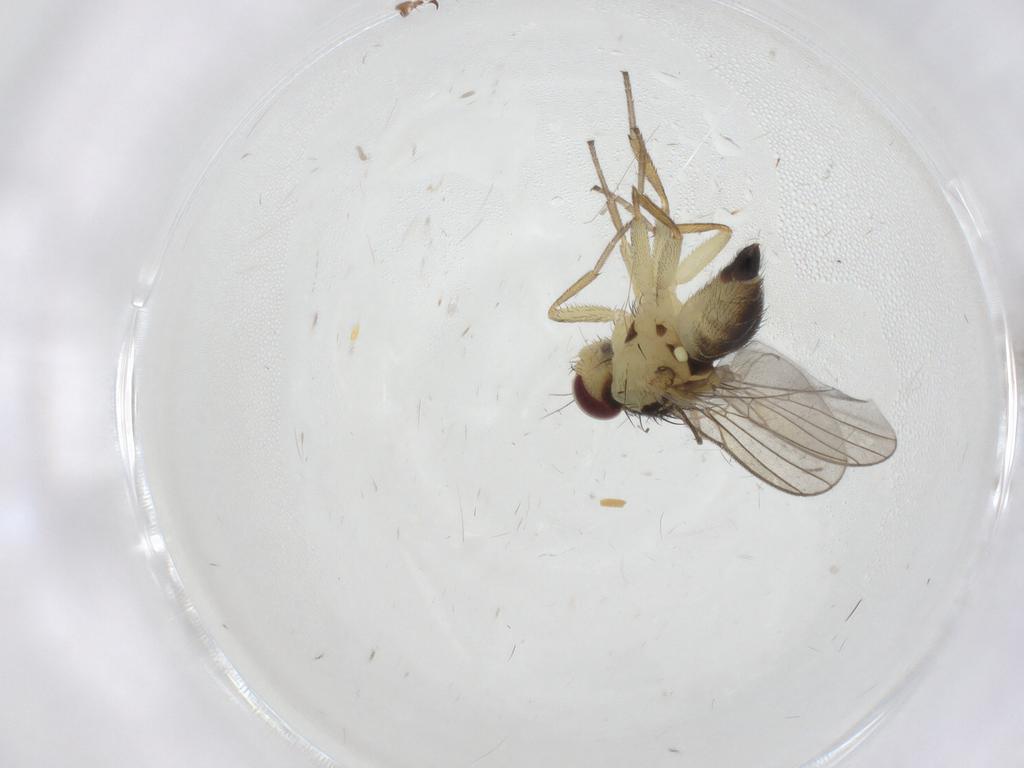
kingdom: Animalia
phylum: Arthropoda
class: Insecta
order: Diptera
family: Agromyzidae
